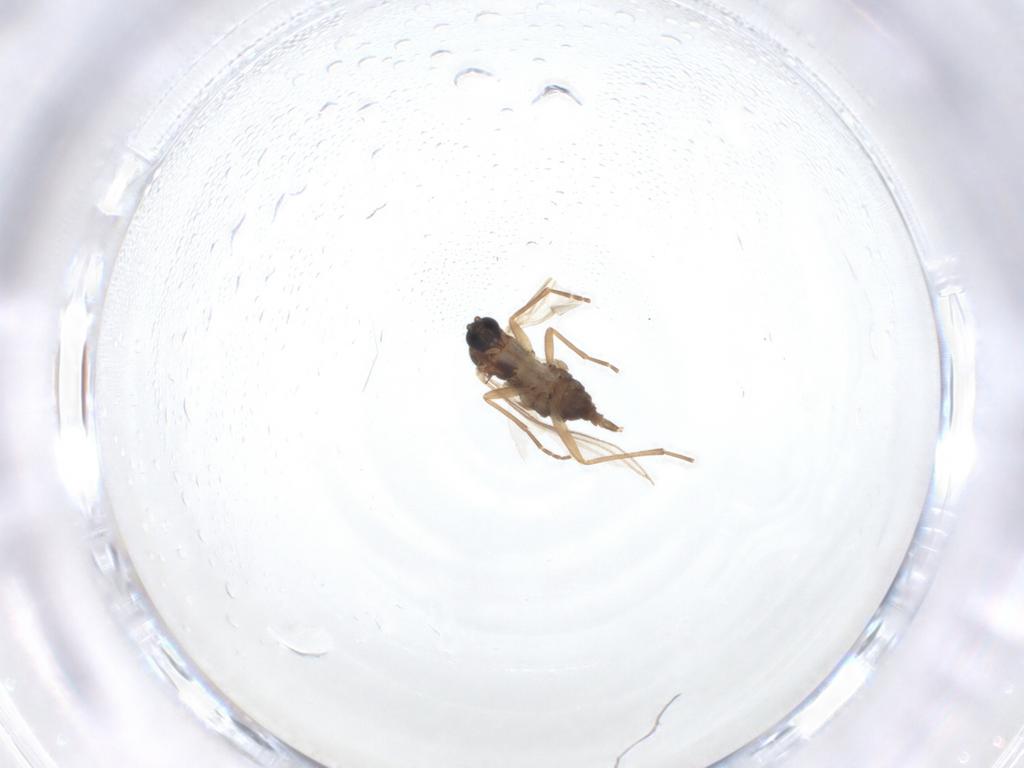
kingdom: Animalia
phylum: Arthropoda
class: Insecta
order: Diptera
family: Sciaridae
